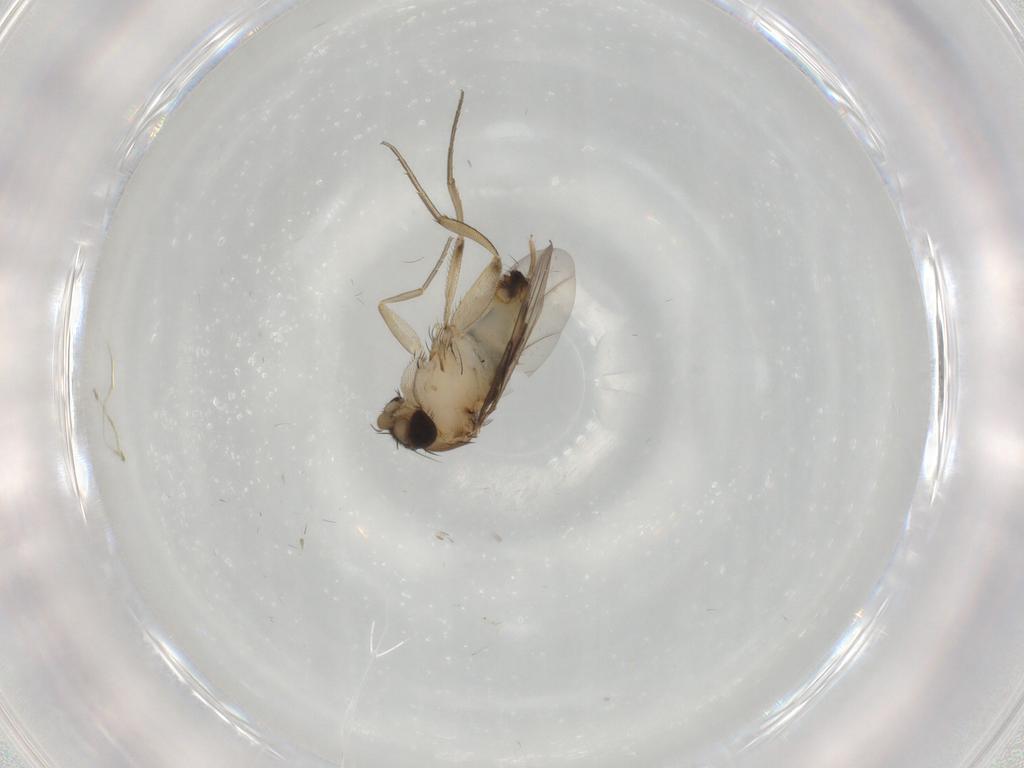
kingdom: Animalia
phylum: Arthropoda
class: Insecta
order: Diptera
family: Phoridae
